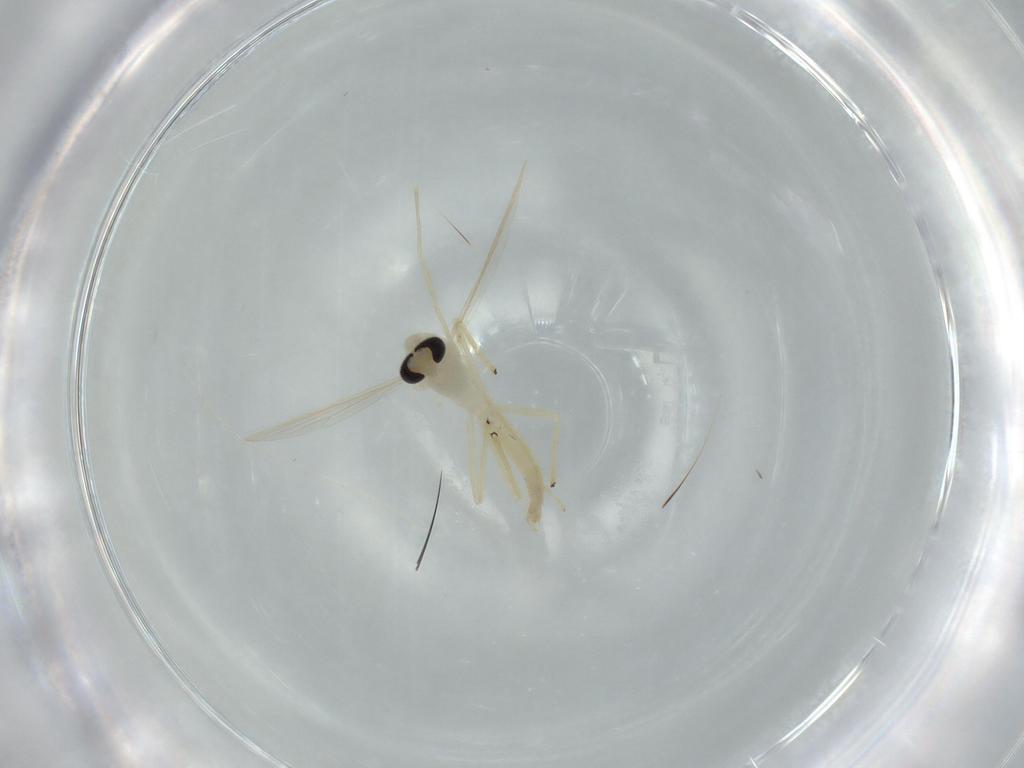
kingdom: Animalia
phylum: Arthropoda
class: Insecta
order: Diptera
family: Chironomidae
